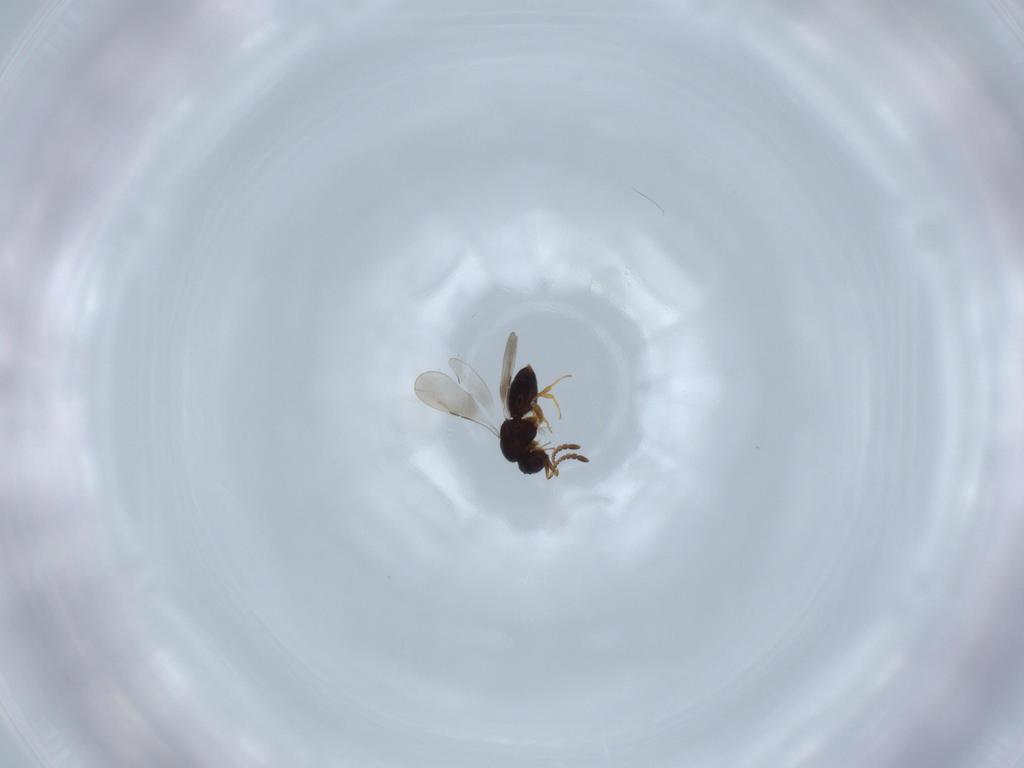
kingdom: Animalia
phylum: Arthropoda
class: Insecta
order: Hymenoptera
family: Ceraphronidae
